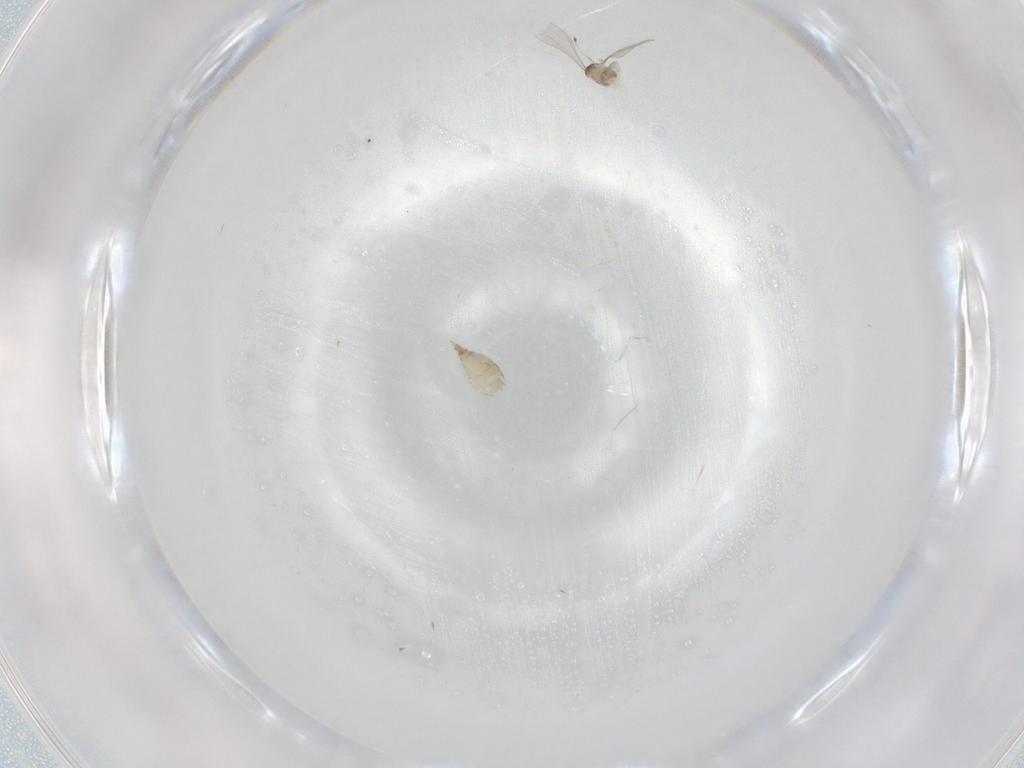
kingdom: Animalia
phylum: Arthropoda
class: Insecta
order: Diptera
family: Cecidomyiidae
